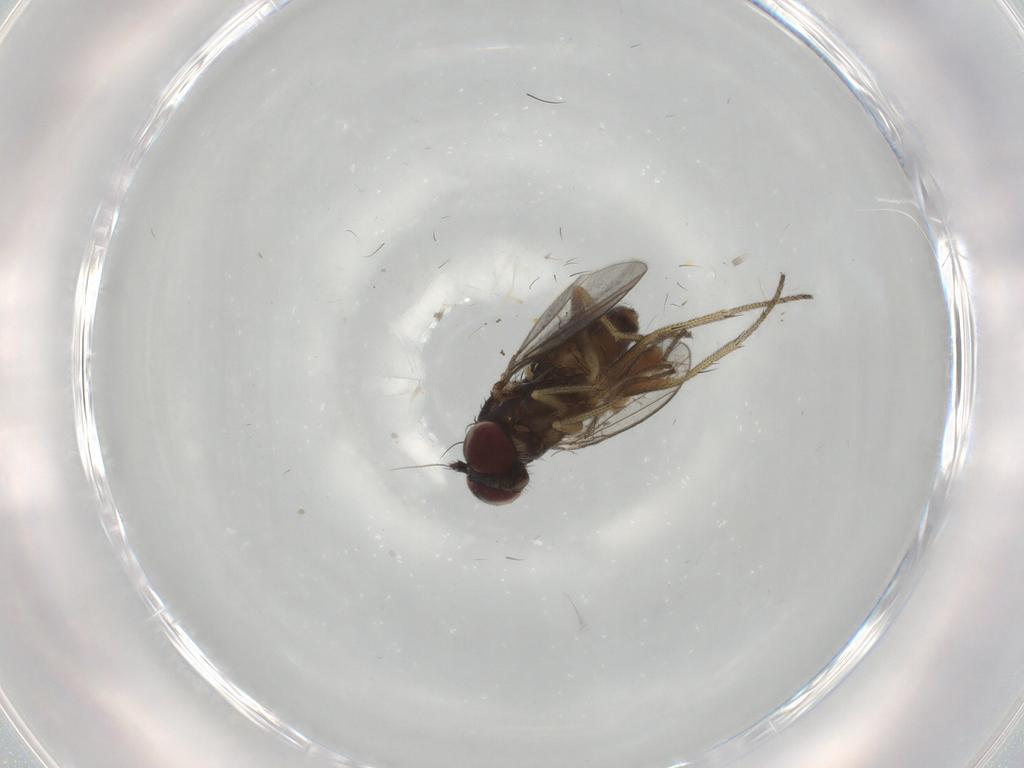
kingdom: Animalia
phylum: Arthropoda
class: Insecta
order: Diptera
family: Dolichopodidae
